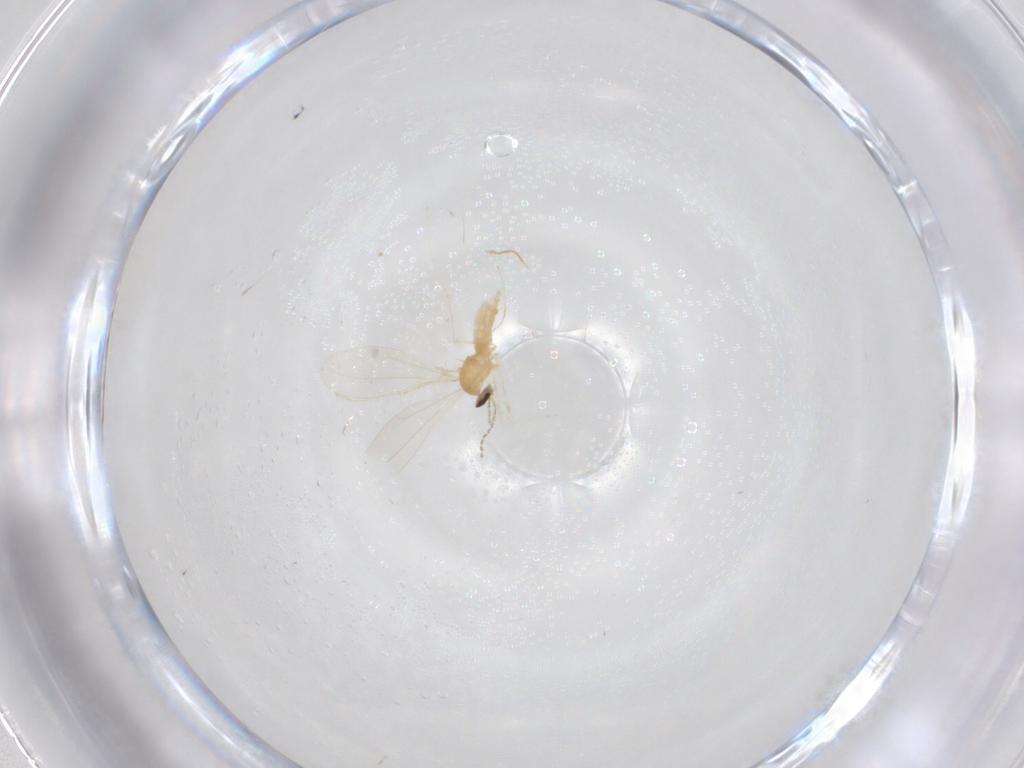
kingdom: Animalia
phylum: Arthropoda
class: Insecta
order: Diptera
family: Cecidomyiidae
